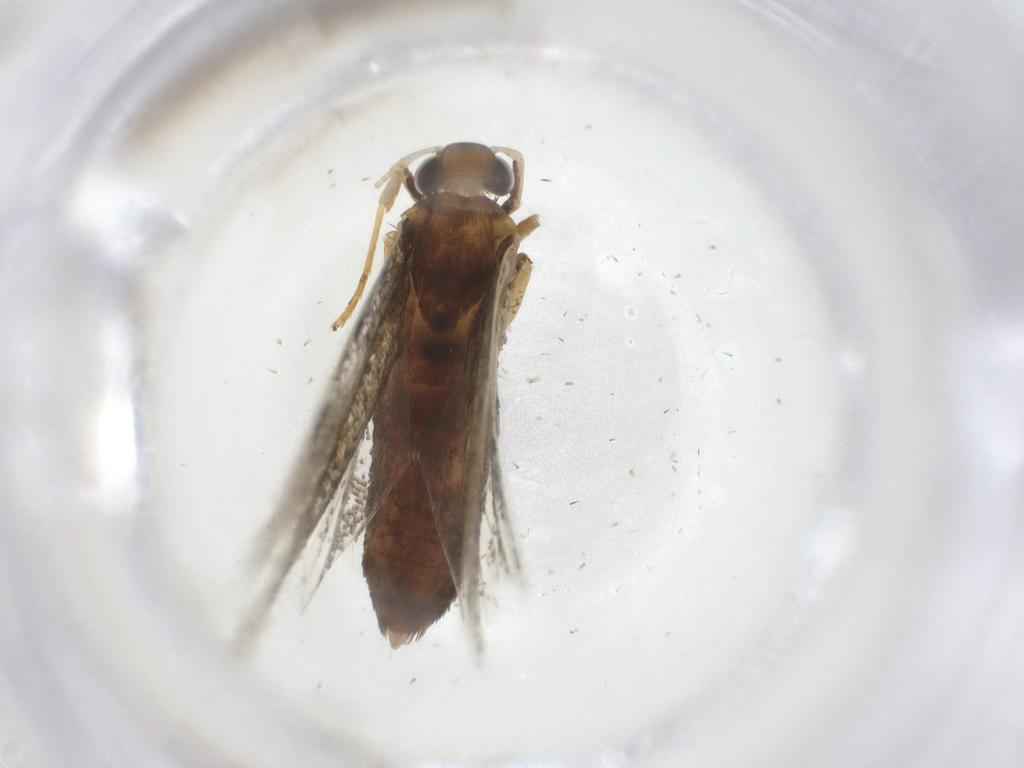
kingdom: Animalia
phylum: Arthropoda
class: Insecta
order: Lepidoptera
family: Lecithoceridae
